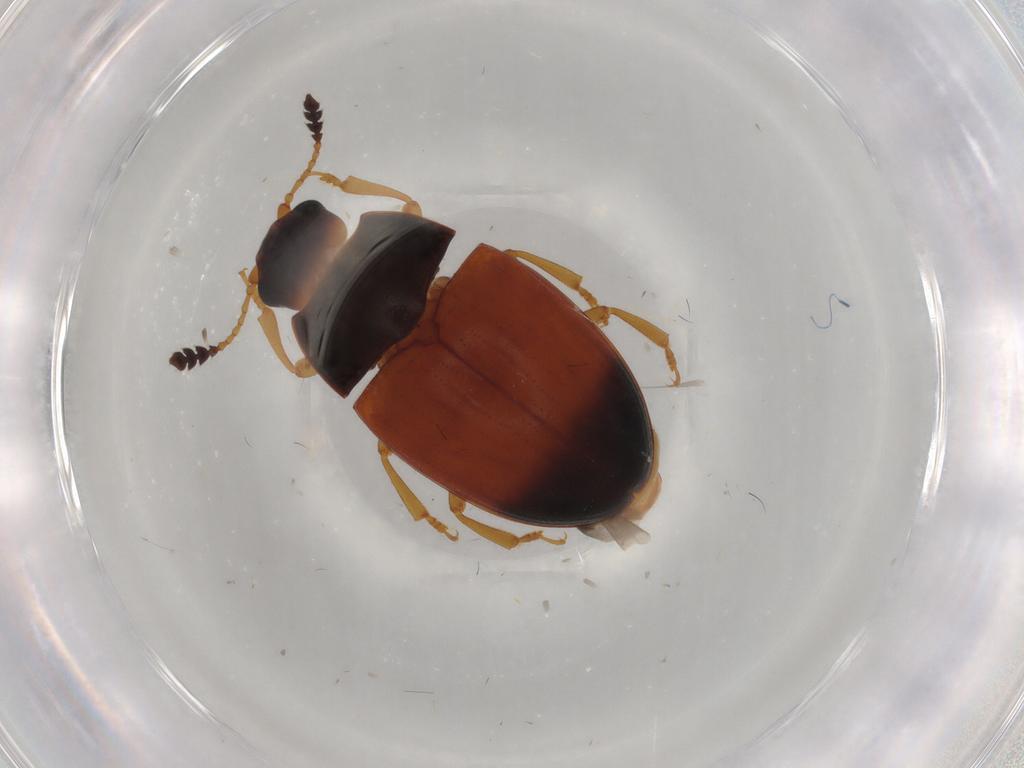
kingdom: Animalia
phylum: Arthropoda
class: Insecta
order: Coleoptera
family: Erotylidae
